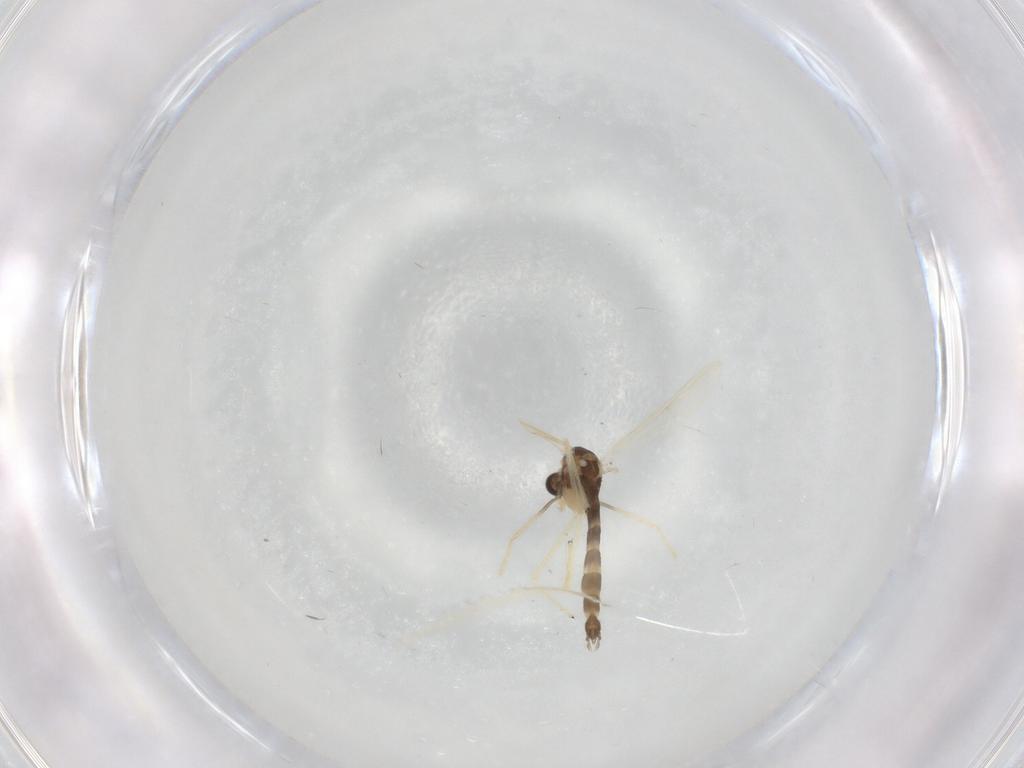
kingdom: Animalia
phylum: Arthropoda
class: Insecta
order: Diptera
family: Chironomidae
